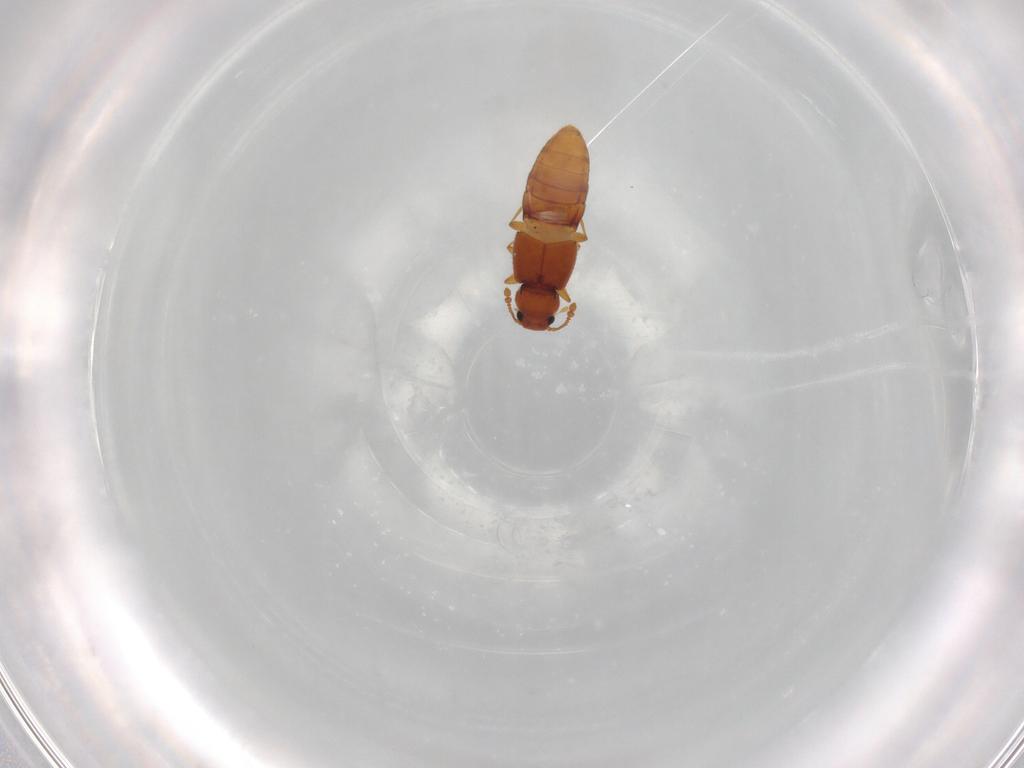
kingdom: Animalia
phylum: Arthropoda
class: Insecta
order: Coleoptera
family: Staphylinidae
